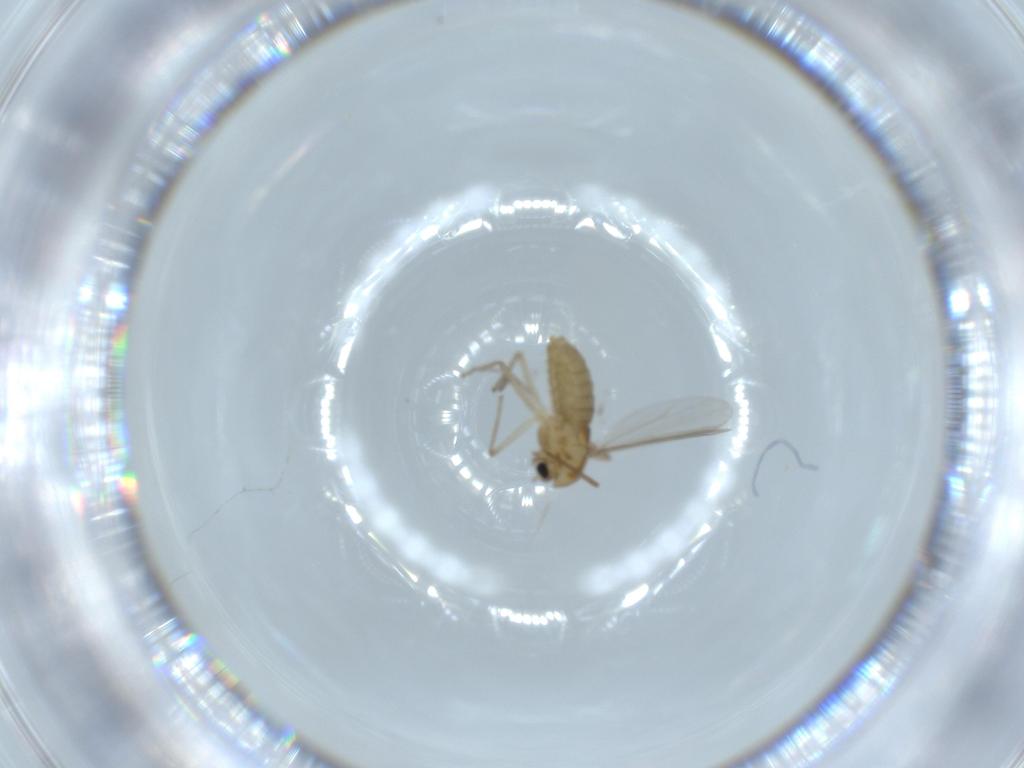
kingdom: Animalia
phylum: Arthropoda
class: Insecta
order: Diptera
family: Chironomidae
